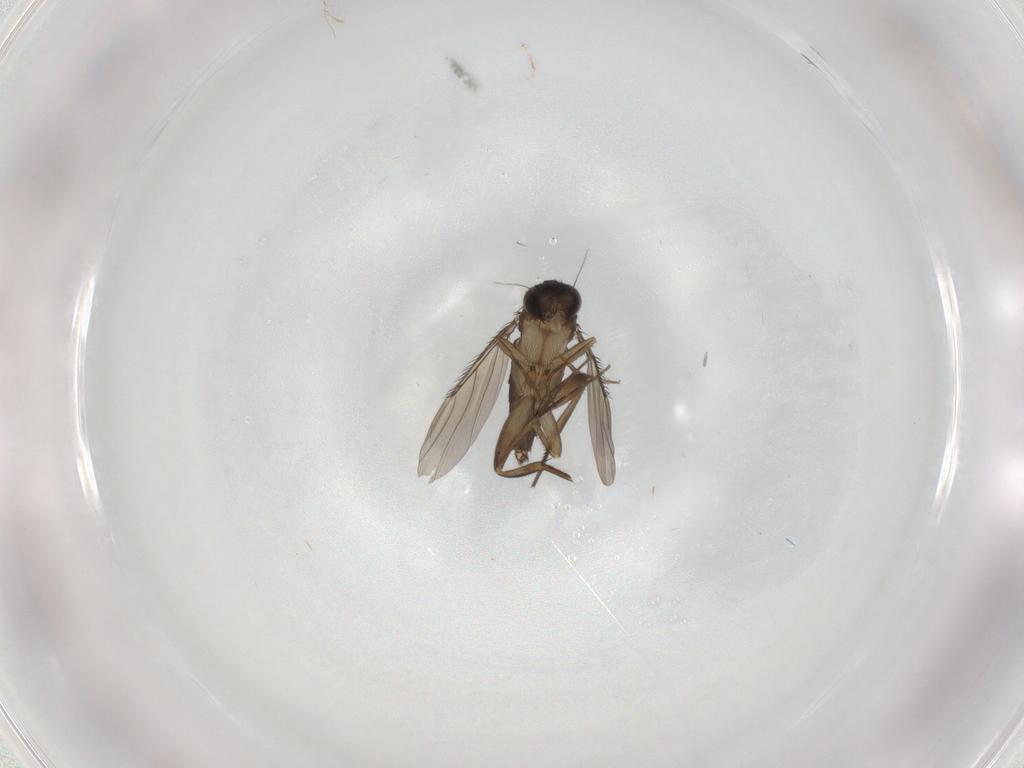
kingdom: Animalia
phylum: Arthropoda
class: Insecta
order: Diptera
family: Phoridae
